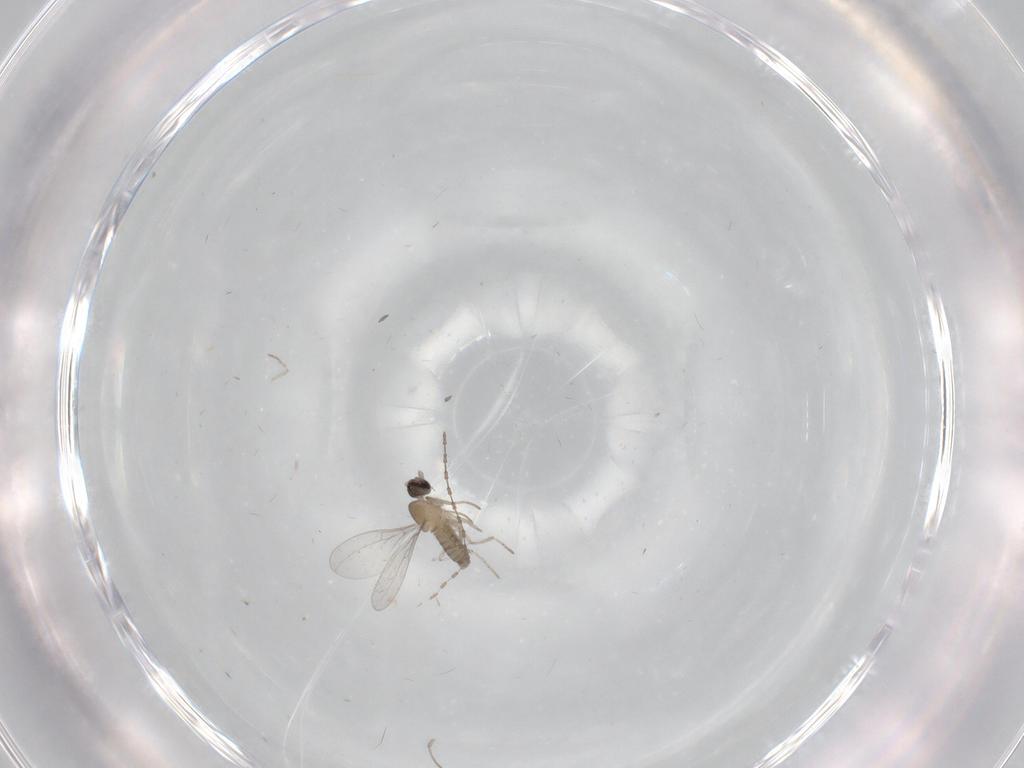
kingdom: Animalia
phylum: Arthropoda
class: Insecta
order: Diptera
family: Cecidomyiidae
